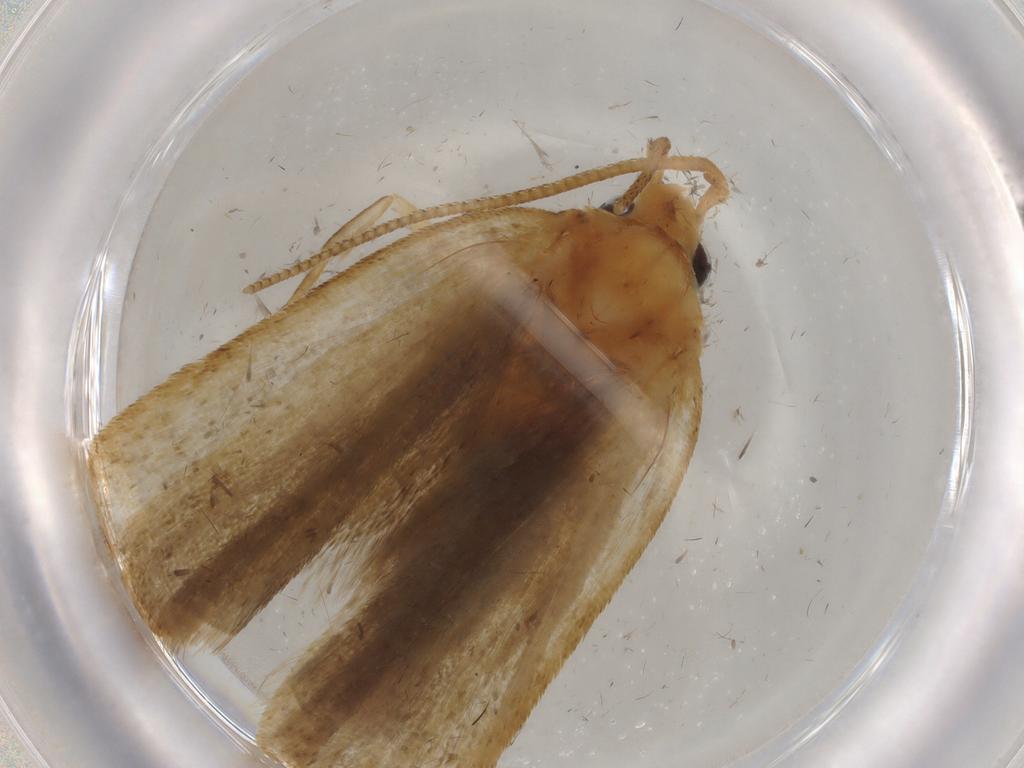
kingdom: Animalia
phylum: Arthropoda
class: Insecta
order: Lepidoptera
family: Autostichidae
